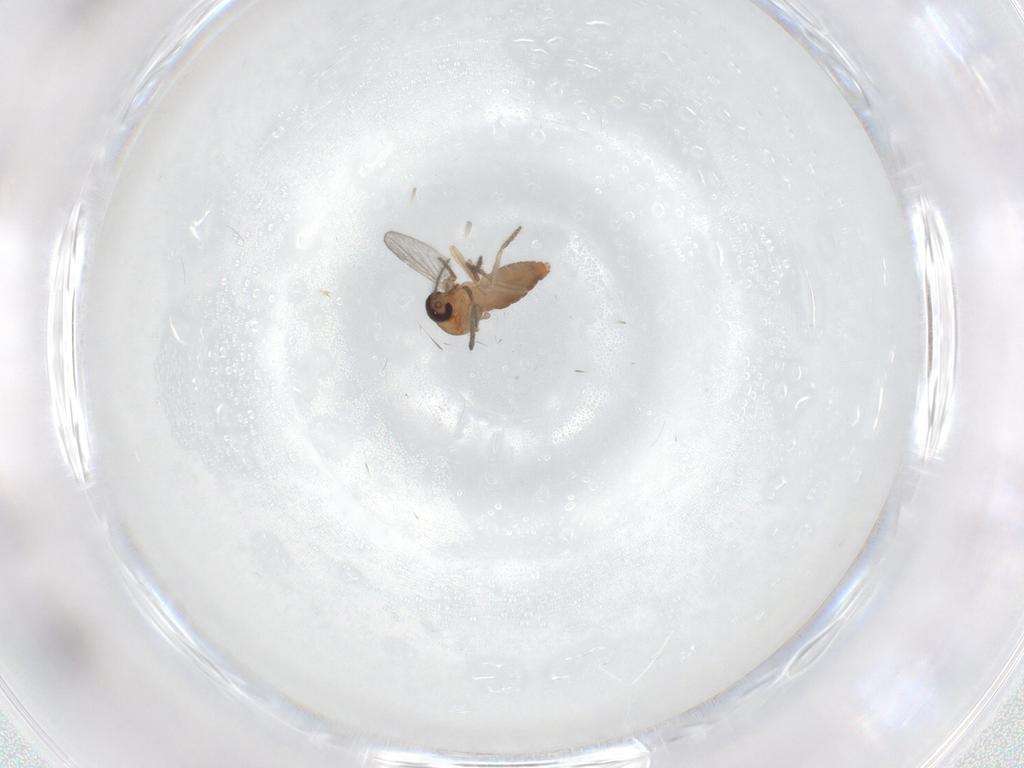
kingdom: Animalia
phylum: Arthropoda
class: Insecta
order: Diptera
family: Ceratopogonidae
